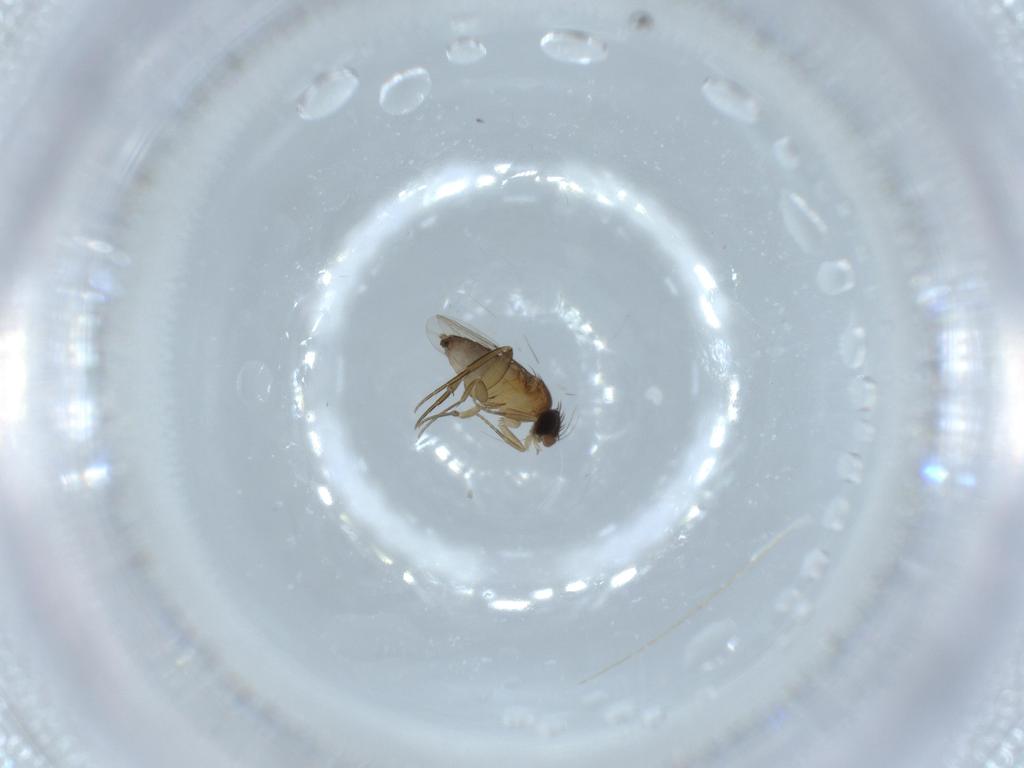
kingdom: Animalia
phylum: Arthropoda
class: Insecta
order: Diptera
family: Phoridae
